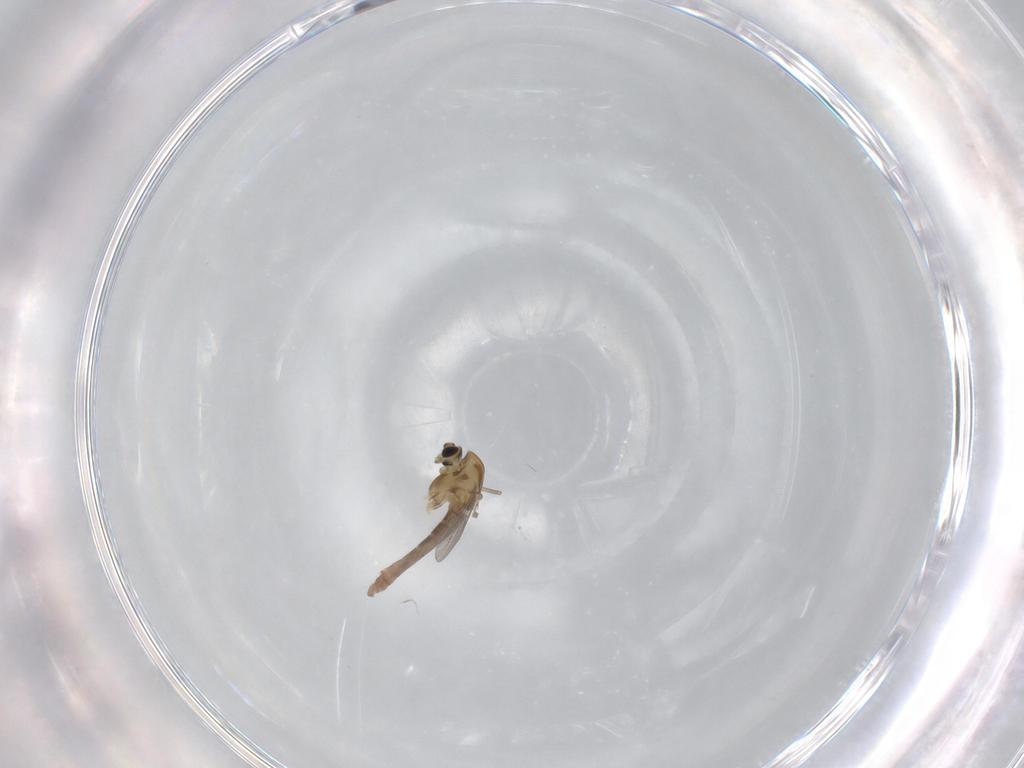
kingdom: Animalia
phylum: Arthropoda
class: Insecta
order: Diptera
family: Chironomidae
